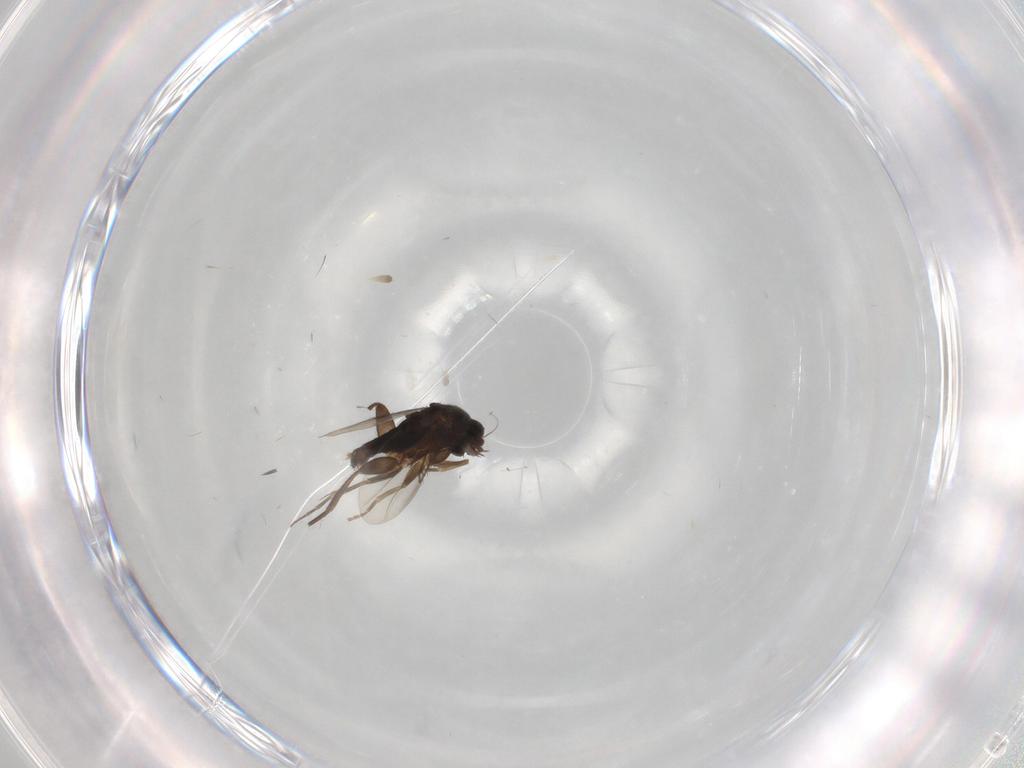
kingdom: Animalia
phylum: Arthropoda
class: Insecta
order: Diptera
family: Phoridae
